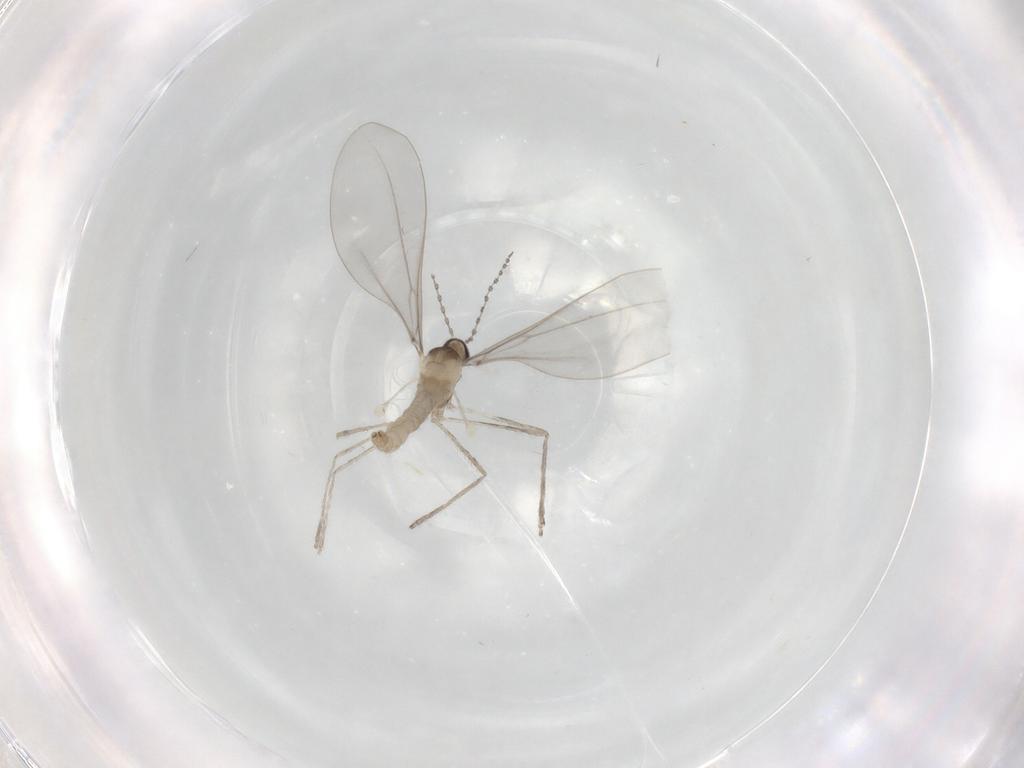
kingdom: Animalia
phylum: Arthropoda
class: Insecta
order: Diptera
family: Cecidomyiidae
